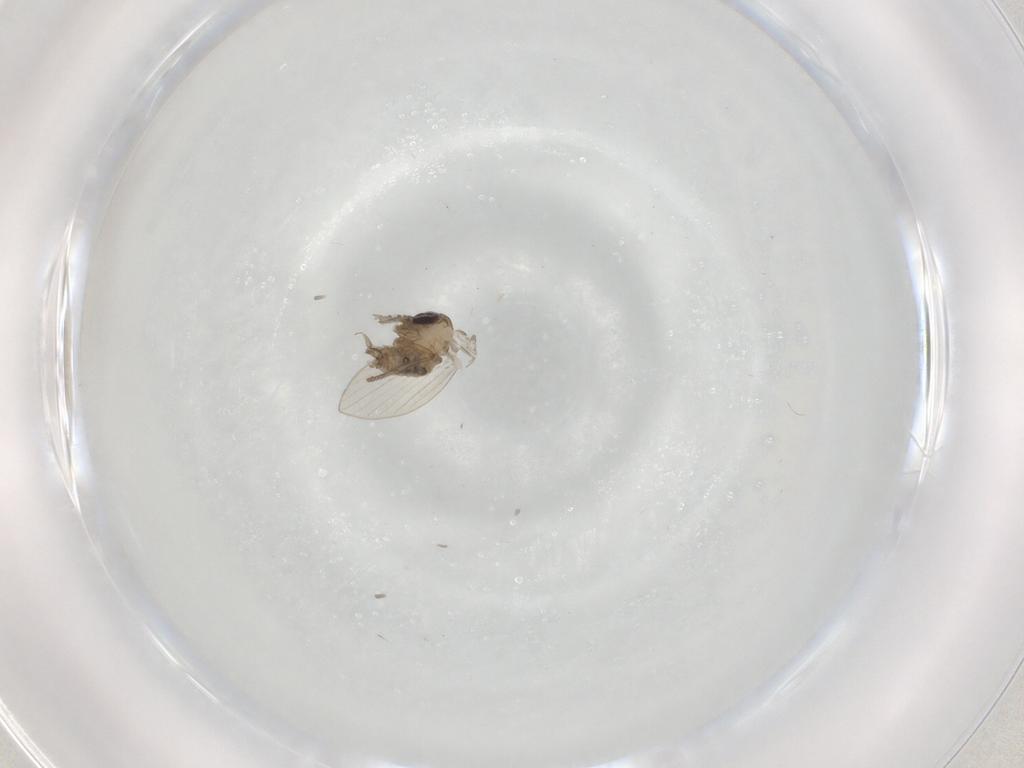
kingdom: Animalia
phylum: Arthropoda
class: Insecta
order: Diptera
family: Psychodidae
